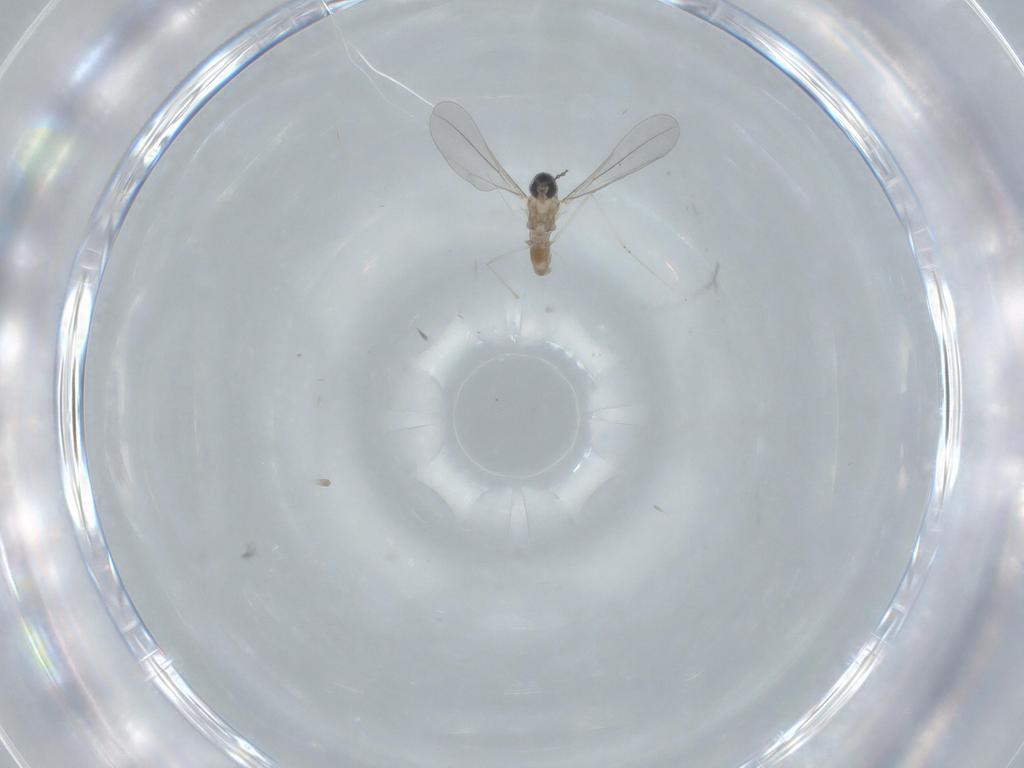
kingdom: Animalia
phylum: Arthropoda
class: Insecta
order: Diptera
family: Cecidomyiidae
